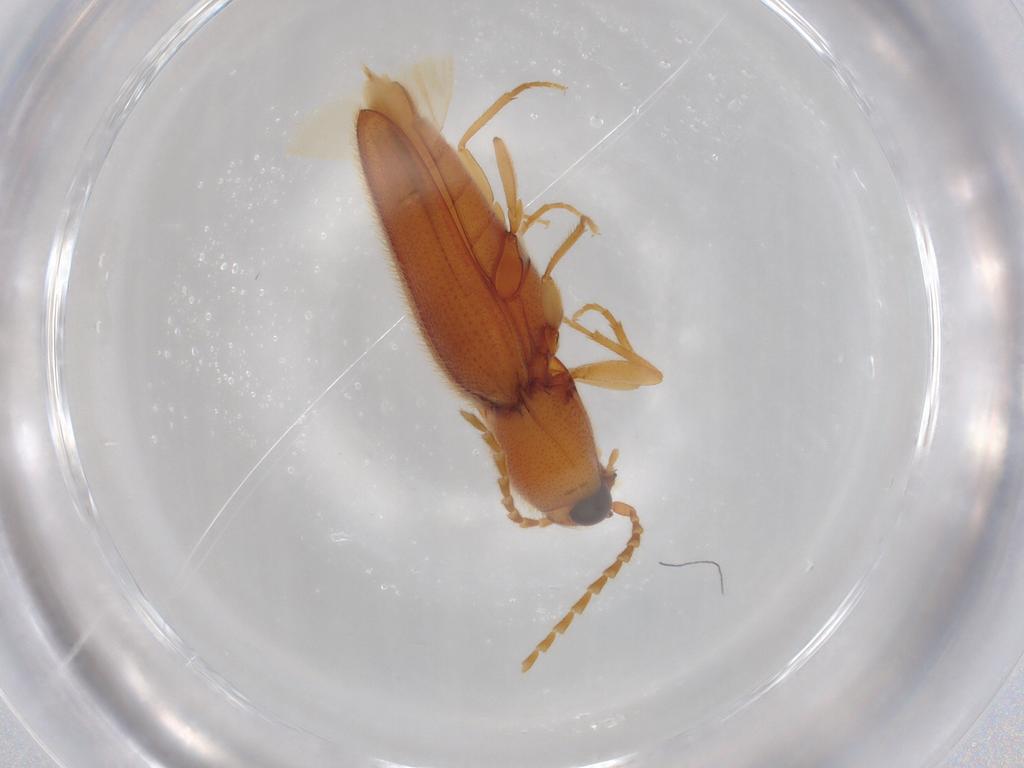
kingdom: Animalia
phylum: Arthropoda
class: Insecta
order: Coleoptera
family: Elateridae
